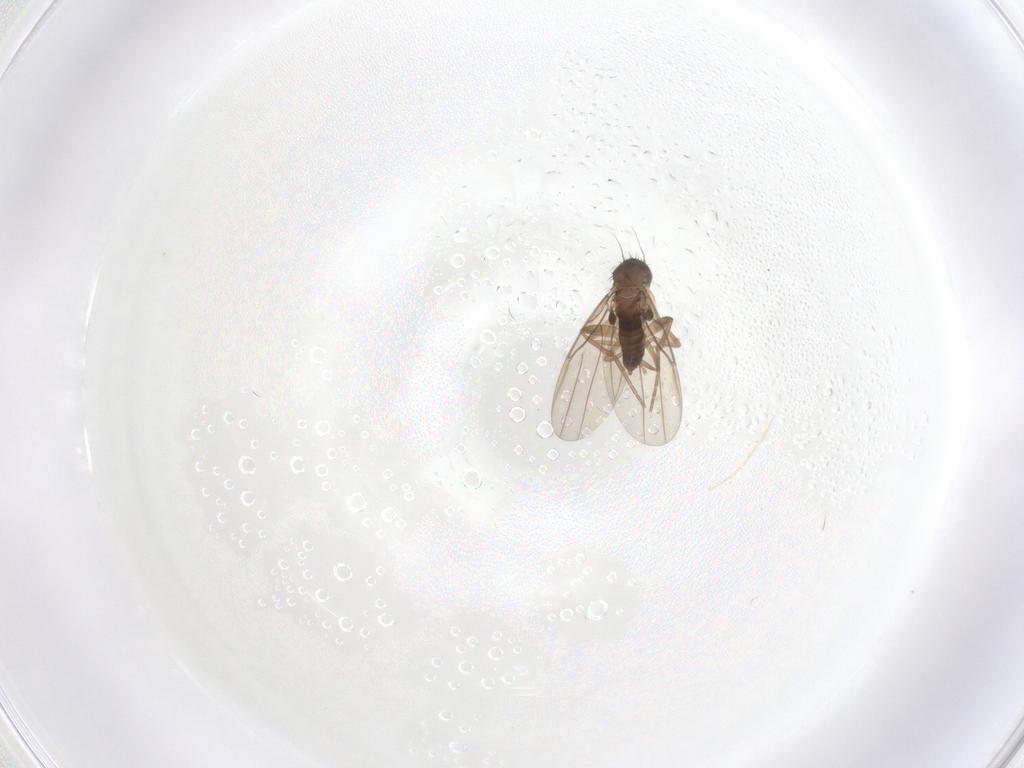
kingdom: Animalia
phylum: Arthropoda
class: Insecta
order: Diptera
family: Phoridae
